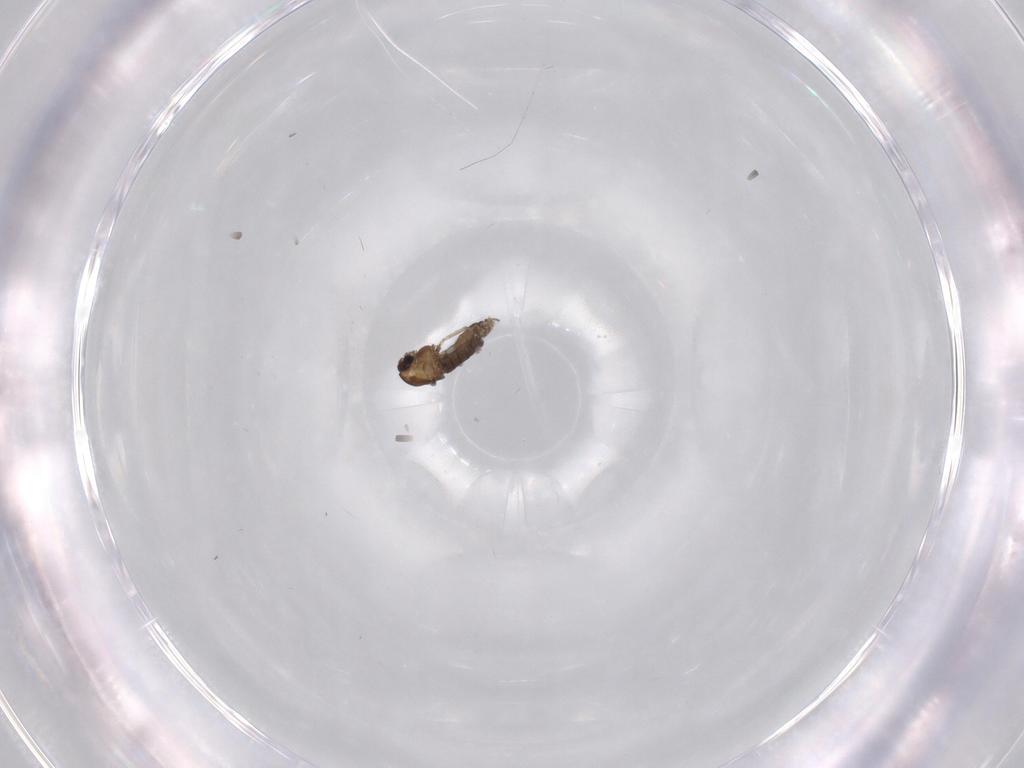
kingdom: Animalia
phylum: Arthropoda
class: Insecta
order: Diptera
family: Chironomidae
